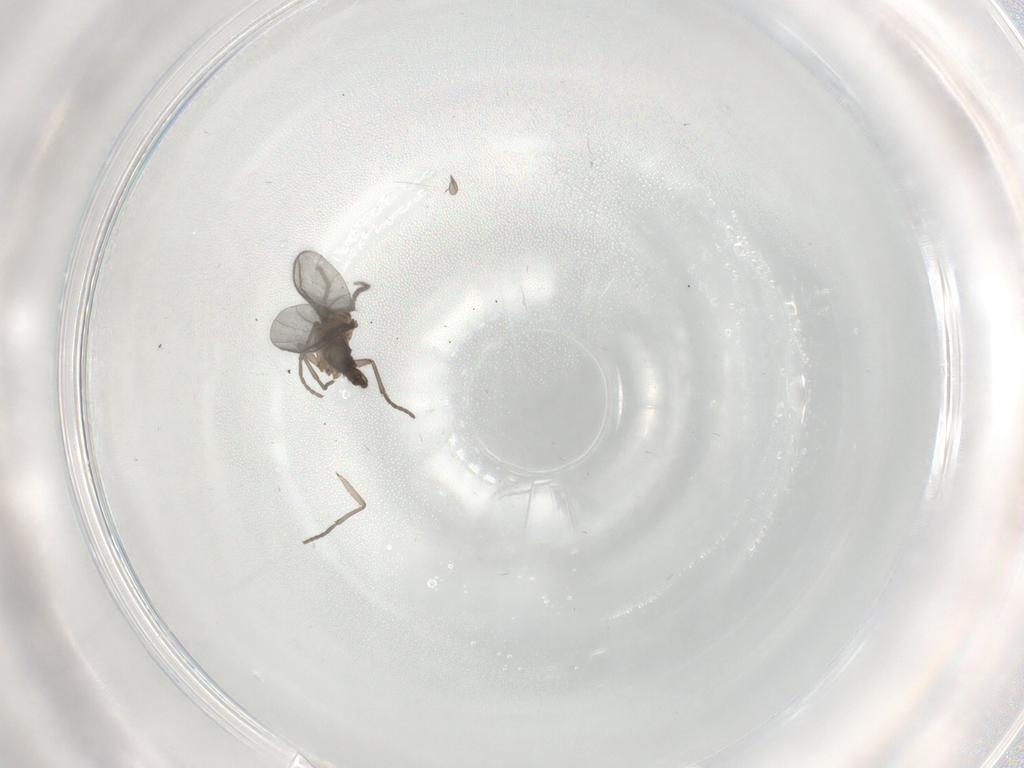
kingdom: Animalia
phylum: Arthropoda
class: Insecta
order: Diptera
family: Sciaridae
